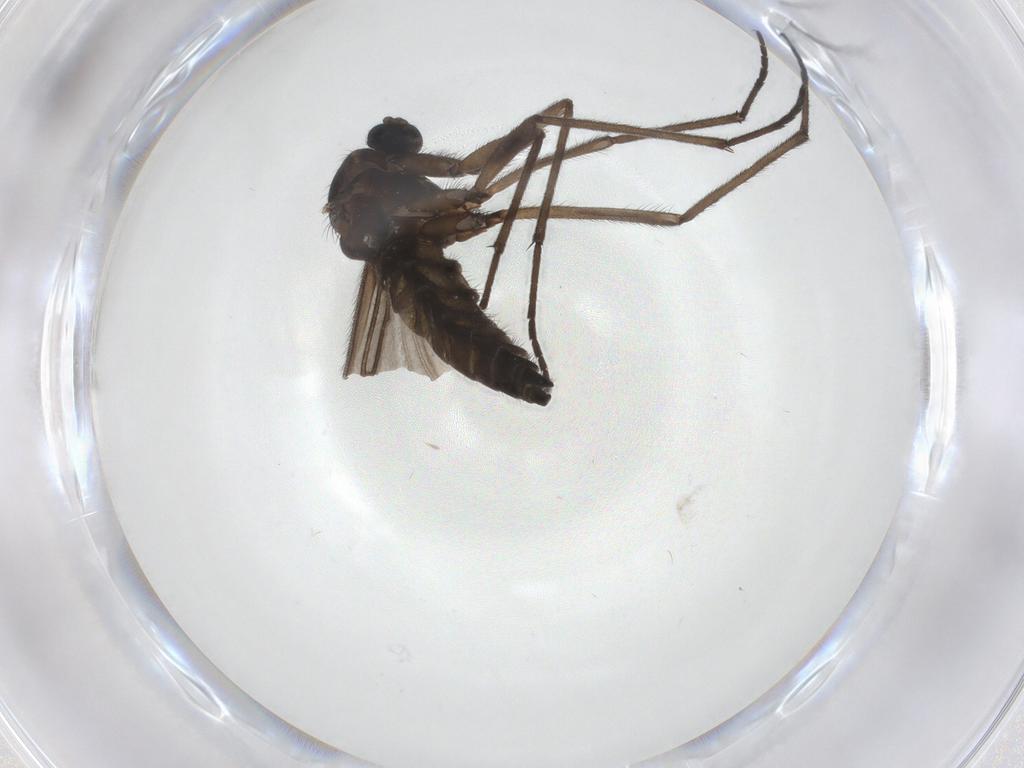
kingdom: Animalia
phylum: Arthropoda
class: Insecta
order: Diptera
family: Sciaridae
